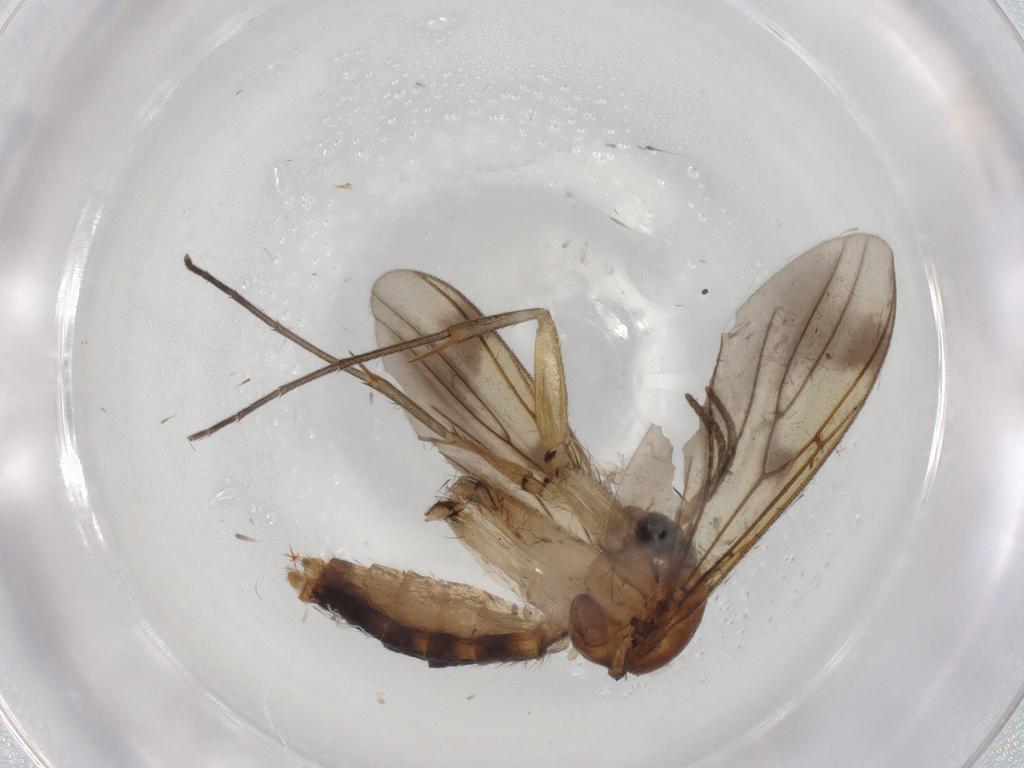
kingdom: Animalia
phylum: Arthropoda
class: Insecta
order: Diptera
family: Mycetophilidae
